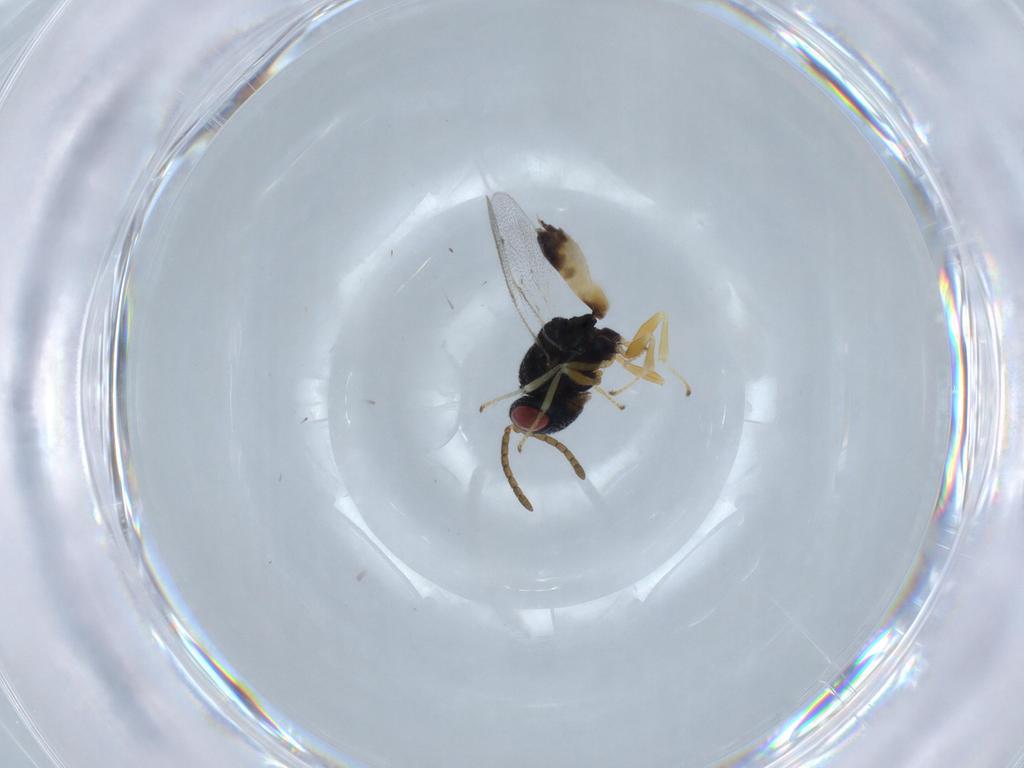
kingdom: Animalia
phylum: Arthropoda
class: Insecta
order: Hymenoptera
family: Pteromalidae
